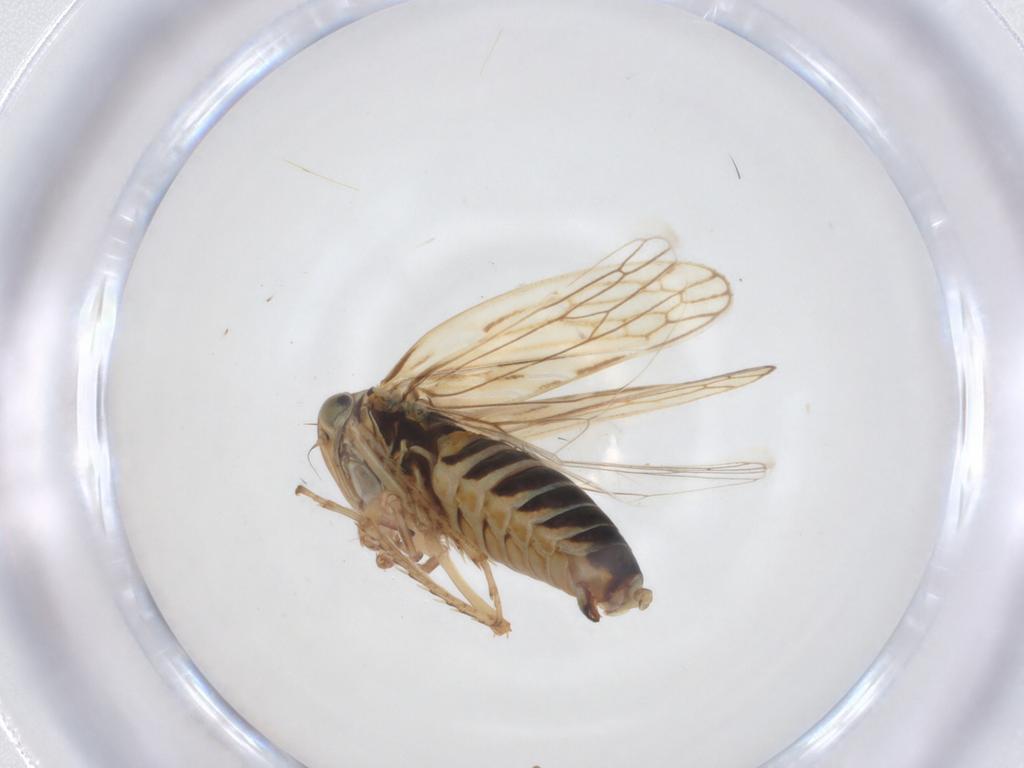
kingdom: Animalia
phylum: Arthropoda
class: Insecta
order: Hemiptera
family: Cicadellidae
